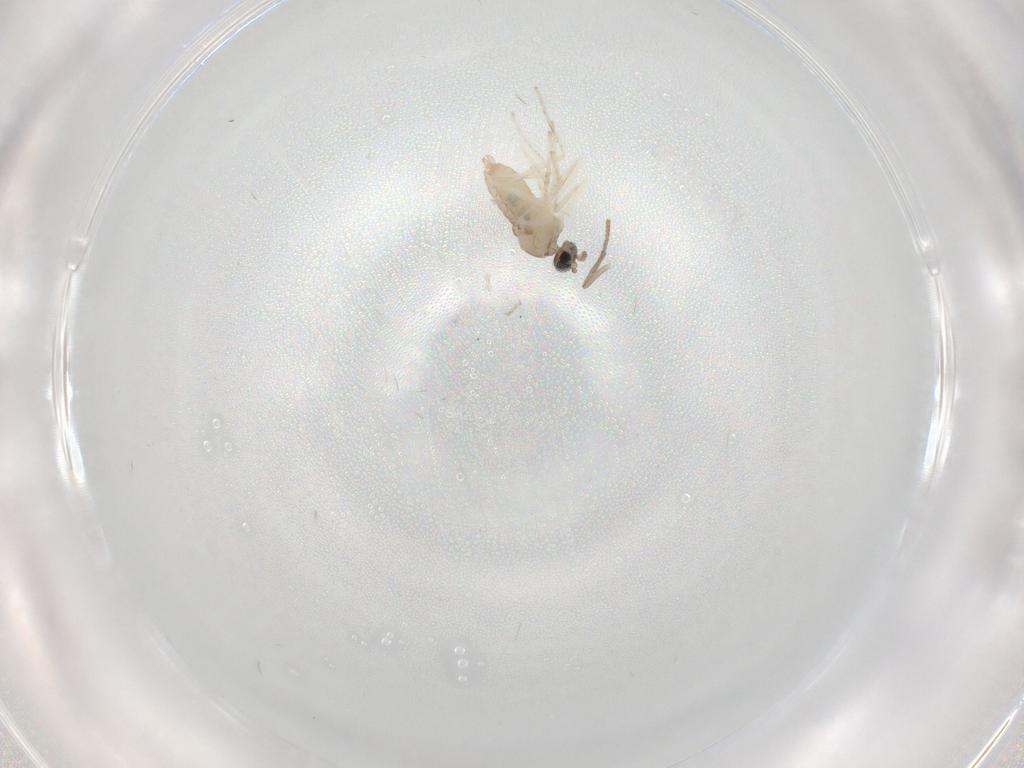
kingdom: Animalia
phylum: Arthropoda
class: Insecta
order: Diptera
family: Cecidomyiidae
